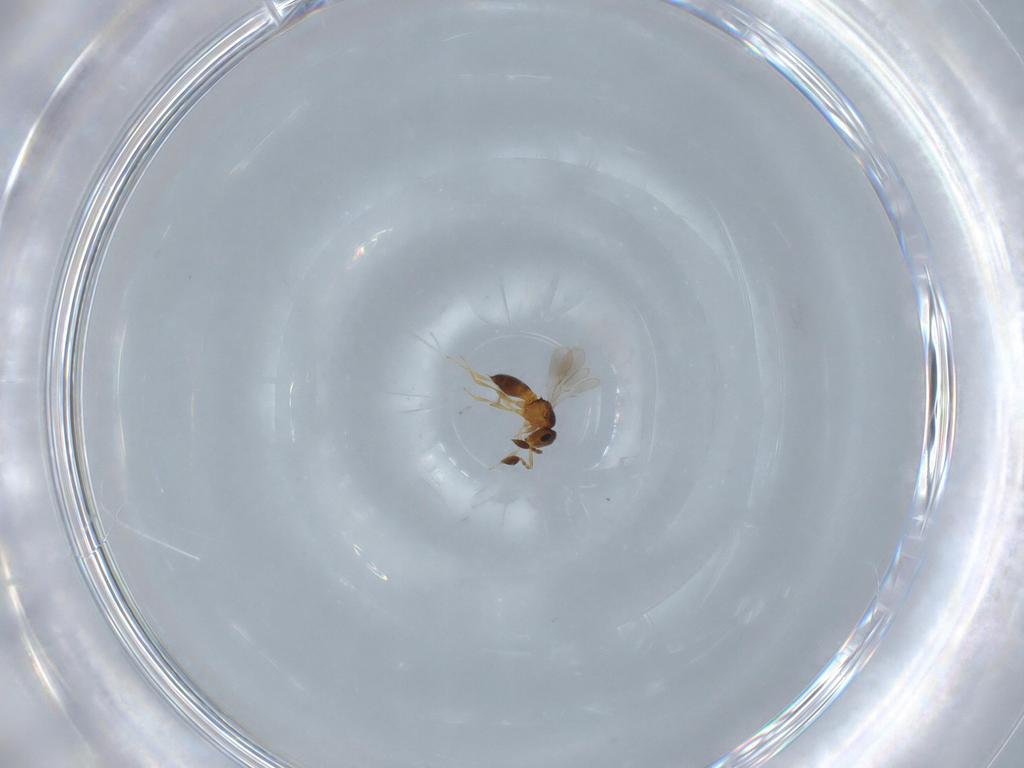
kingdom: Animalia
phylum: Arthropoda
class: Insecta
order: Hymenoptera
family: Scelionidae
